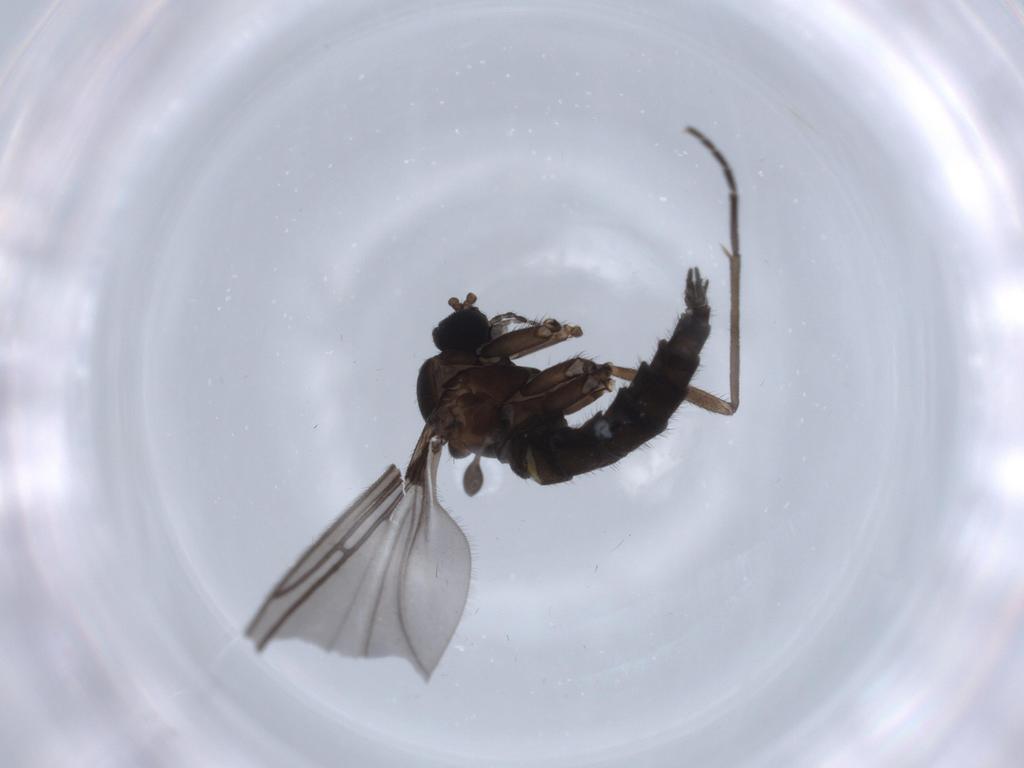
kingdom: Animalia
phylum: Arthropoda
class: Insecta
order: Diptera
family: Sciaridae
